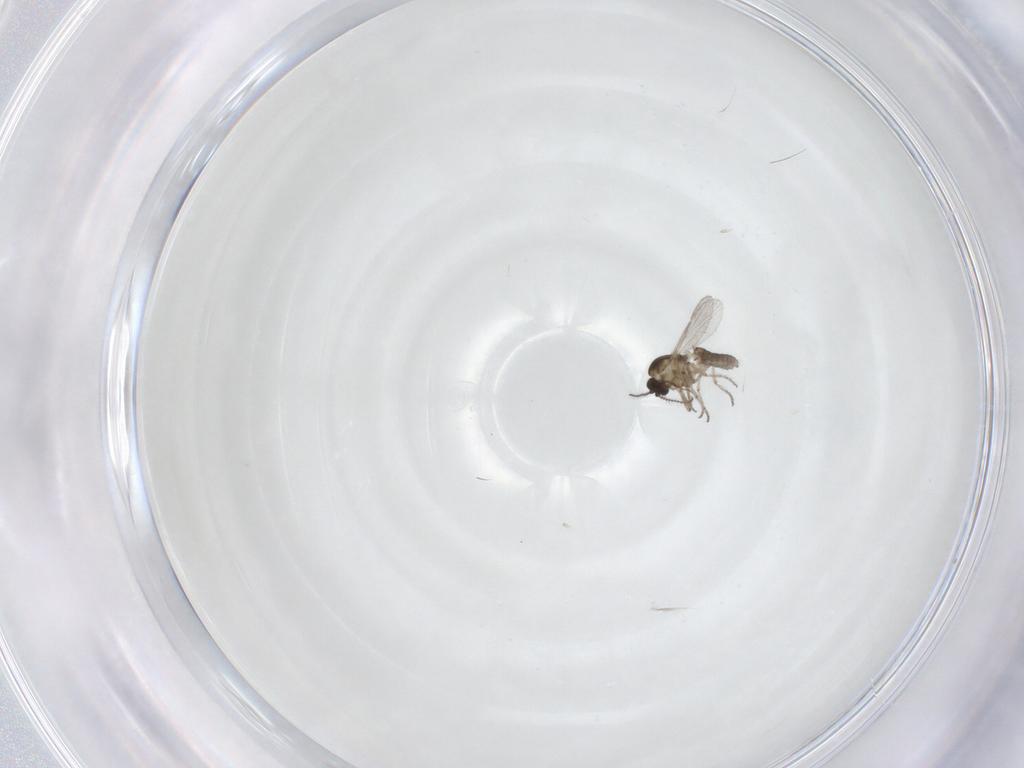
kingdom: Animalia
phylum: Arthropoda
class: Insecta
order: Diptera
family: Ceratopogonidae
